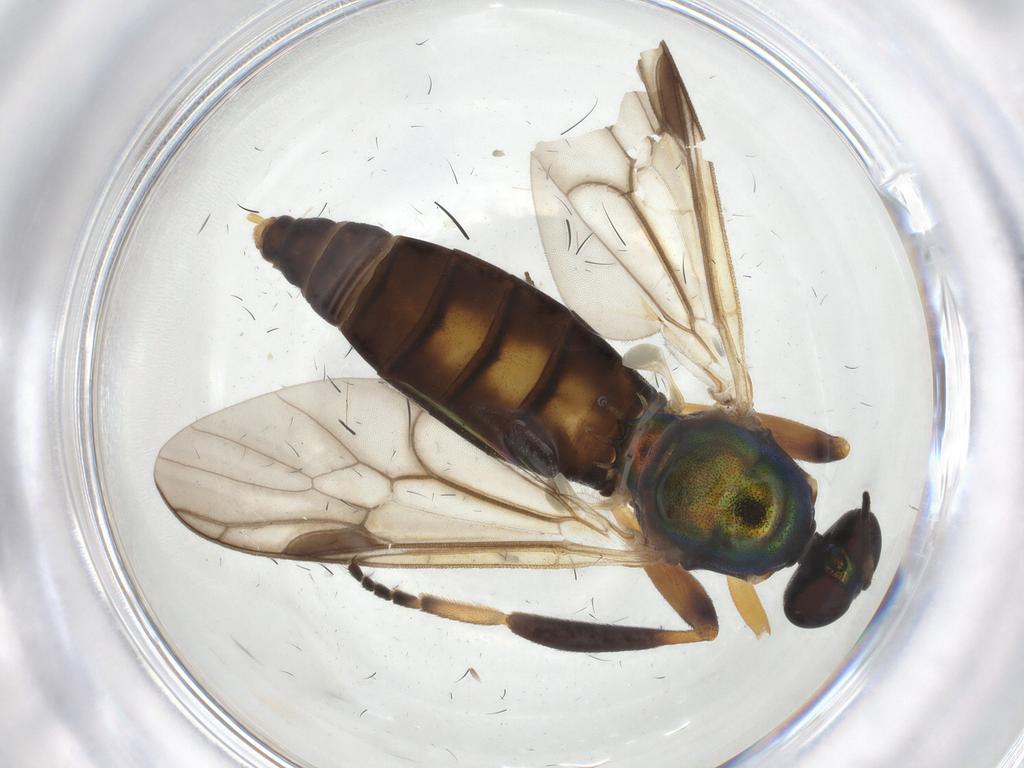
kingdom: Animalia
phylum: Arthropoda
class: Insecta
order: Diptera
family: Stratiomyidae
